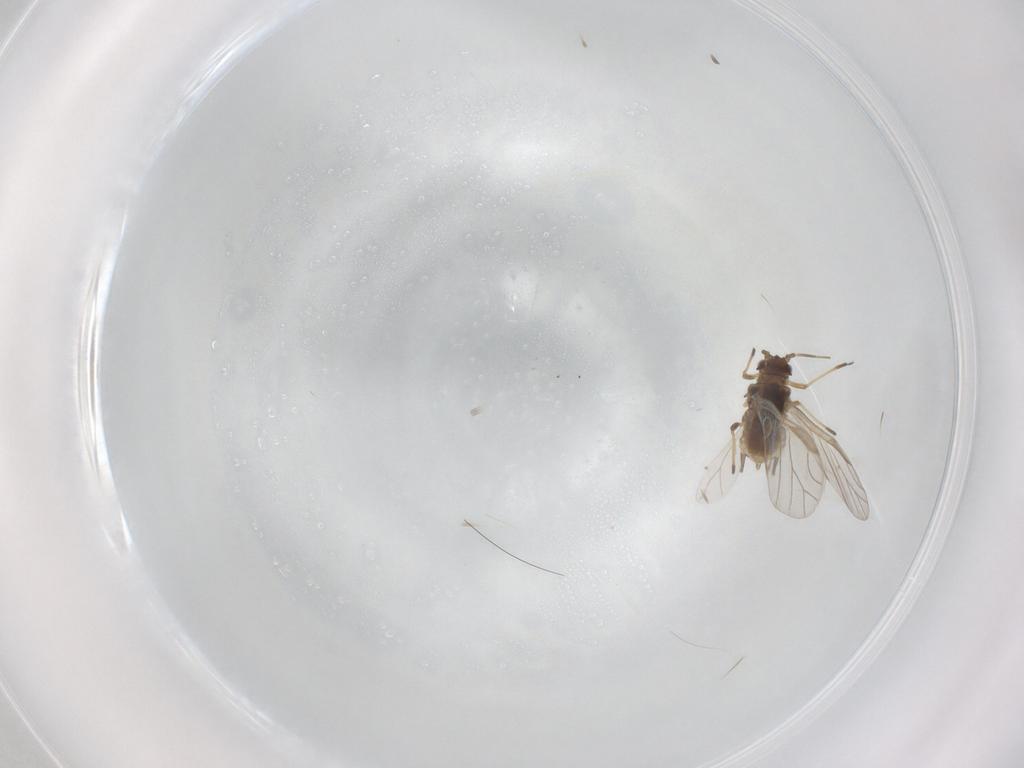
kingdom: Animalia
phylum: Arthropoda
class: Insecta
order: Hemiptera
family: Aphididae
